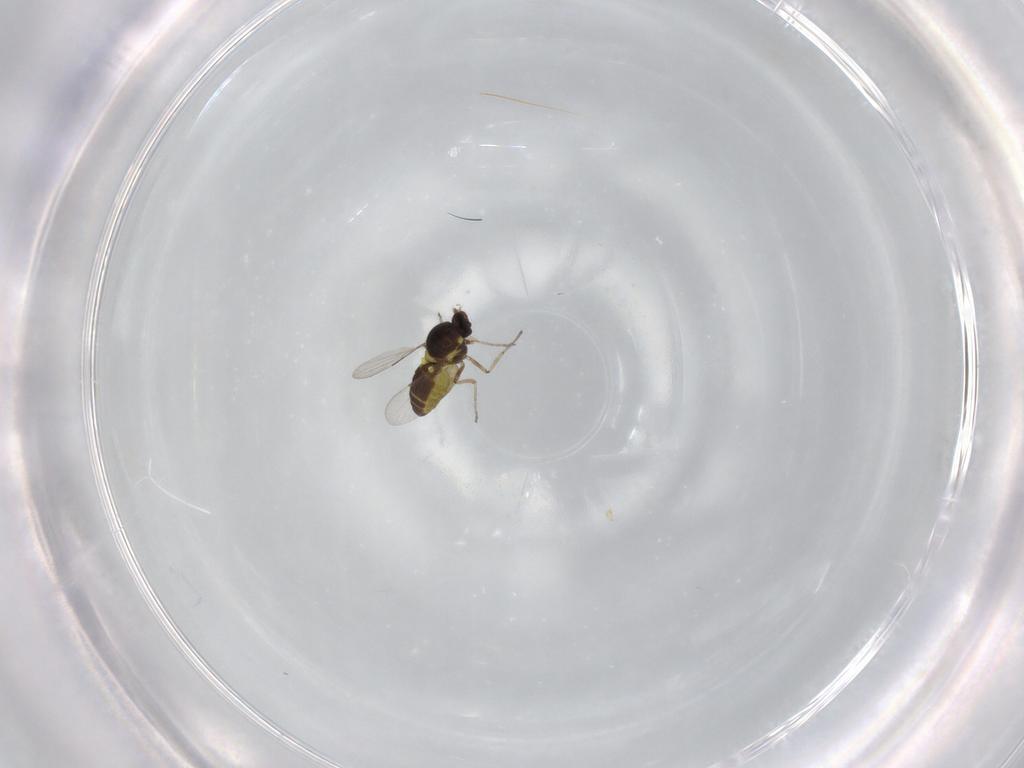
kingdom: Animalia
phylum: Arthropoda
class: Insecta
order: Diptera
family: Ceratopogonidae
